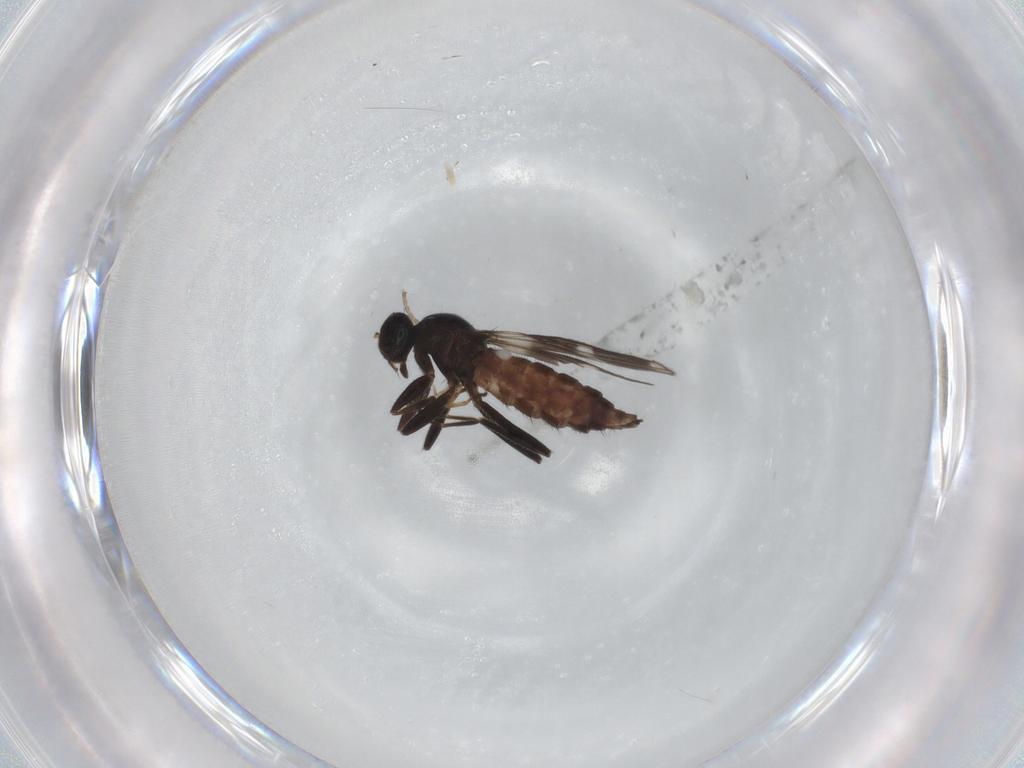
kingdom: Animalia
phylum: Arthropoda
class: Insecta
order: Diptera
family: Hybotidae
